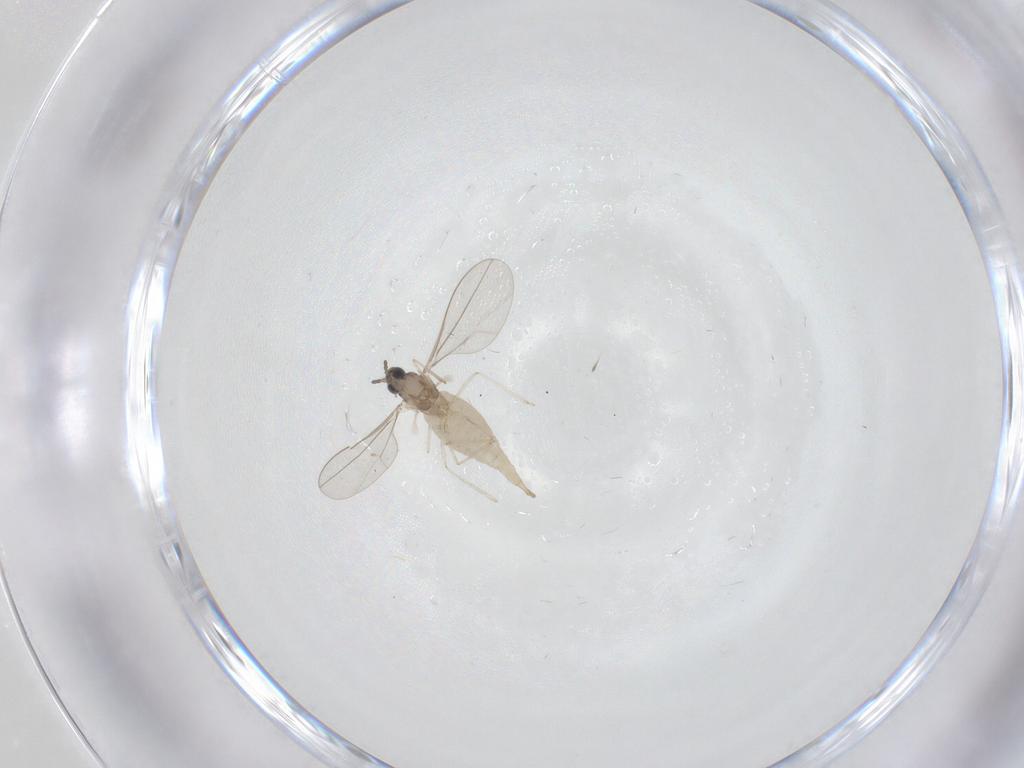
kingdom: Animalia
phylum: Arthropoda
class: Insecta
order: Diptera
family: Cecidomyiidae
